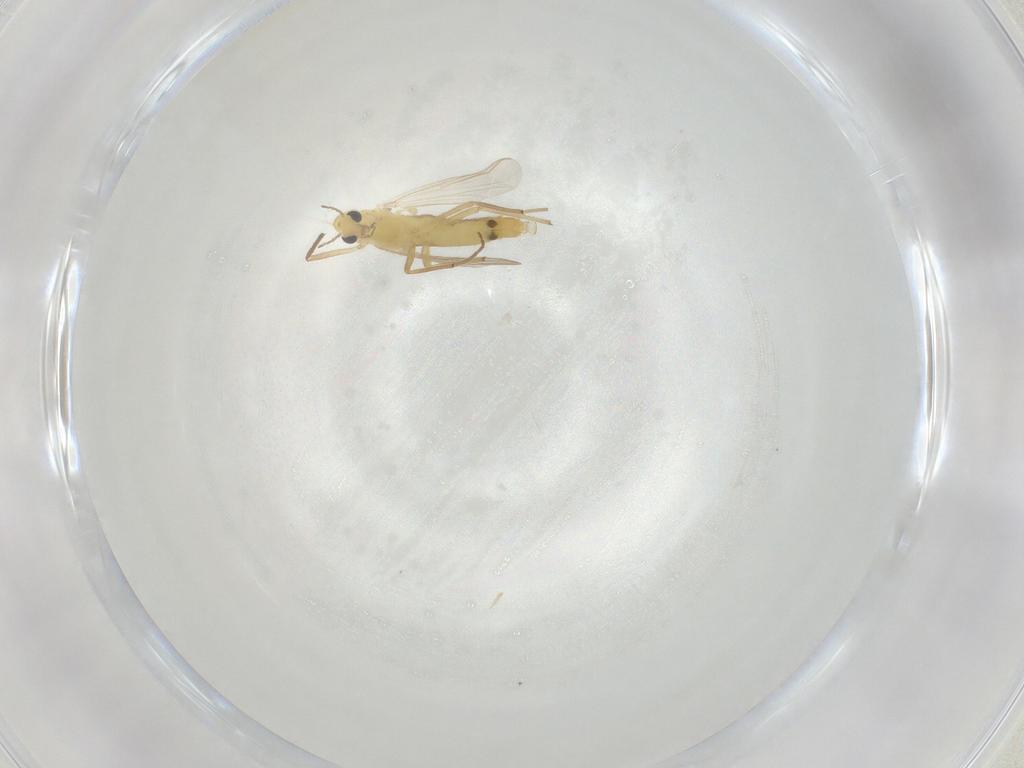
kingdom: Animalia
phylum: Arthropoda
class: Insecta
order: Diptera
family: Chironomidae
